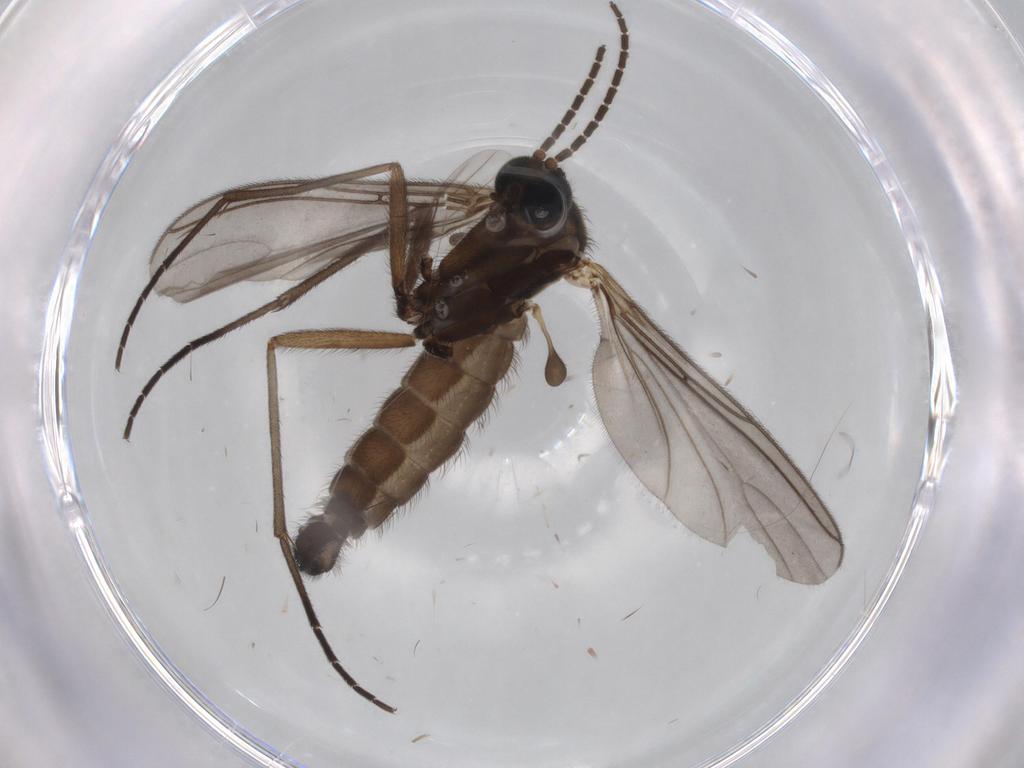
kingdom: Animalia
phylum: Arthropoda
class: Insecta
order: Diptera
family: Sciaridae
